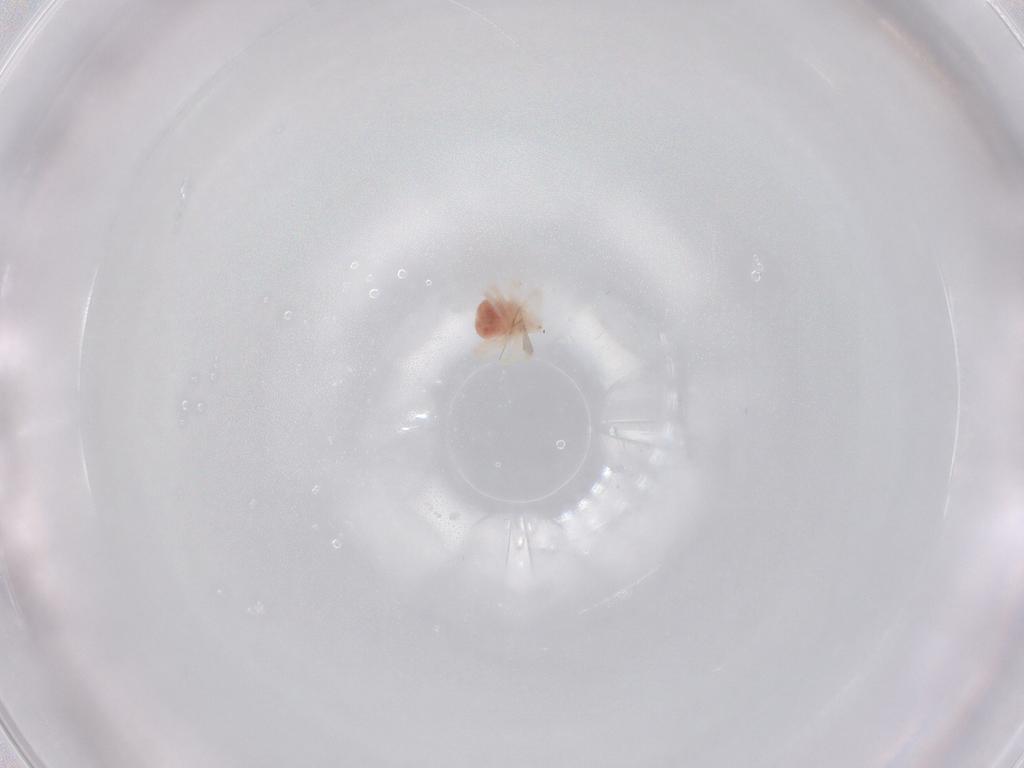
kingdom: Animalia
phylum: Arthropoda
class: Arachnida
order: Trombidiformes
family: Anystidae
